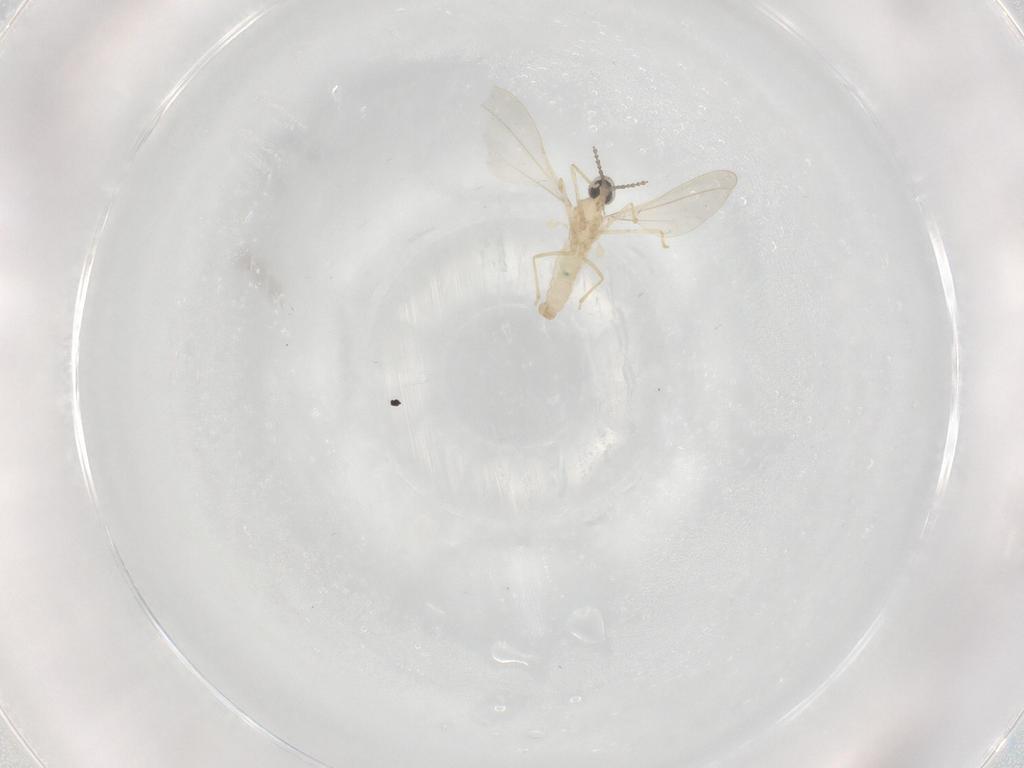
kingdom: Animalia
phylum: Arthropoda
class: Insecta
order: Diptera
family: Cecidomyiidae
